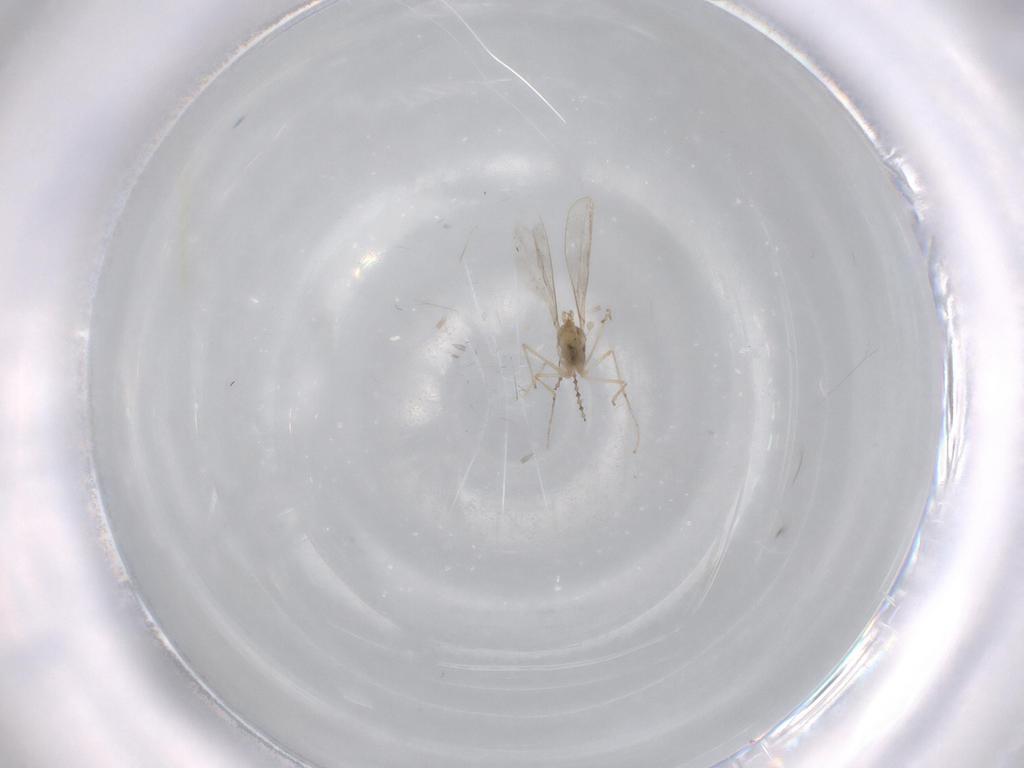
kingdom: Animalia
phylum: Arthropoda
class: Insecta
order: Diptera
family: Cecidomyiidae
